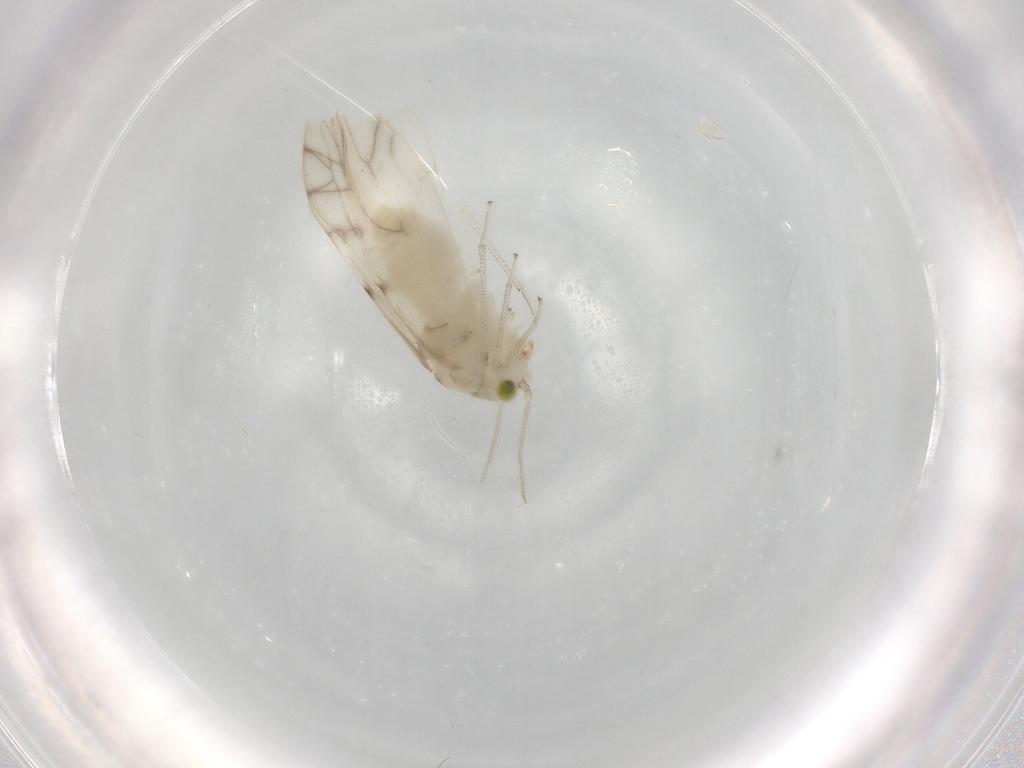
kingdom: Animalia
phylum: Arthropoda
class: Insecta
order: Psocodea
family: Caeciliusidae
